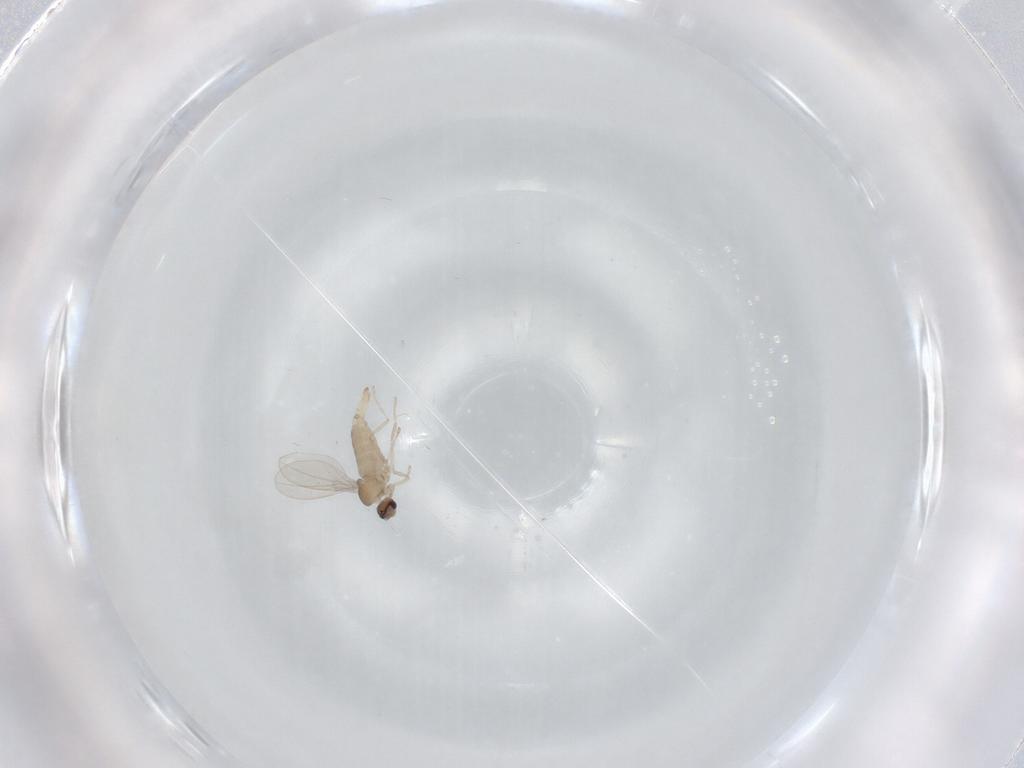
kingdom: Animalia
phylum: Arthropoda
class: Insecta
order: Diptera
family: Cecidomyiidae
